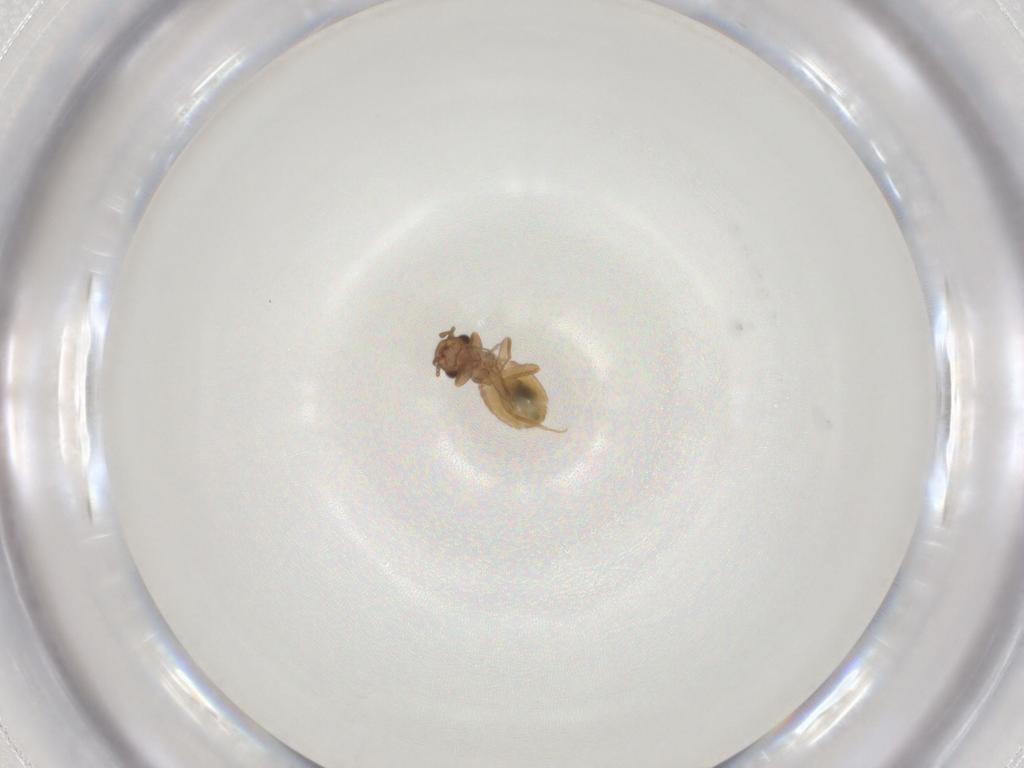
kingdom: Animalia
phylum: Arthropoda
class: Insecta
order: Psocodea
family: Trogiidae
